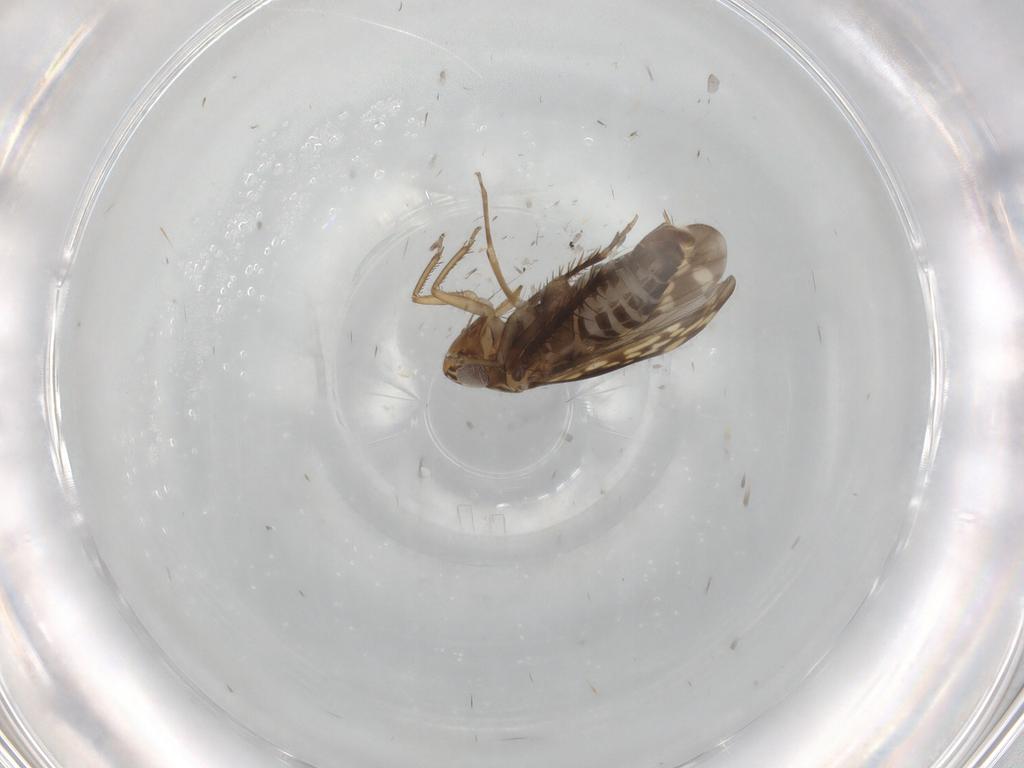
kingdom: Animalia
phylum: Arthropoda
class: Insecta
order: Hemiptera
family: Cicadellidae
